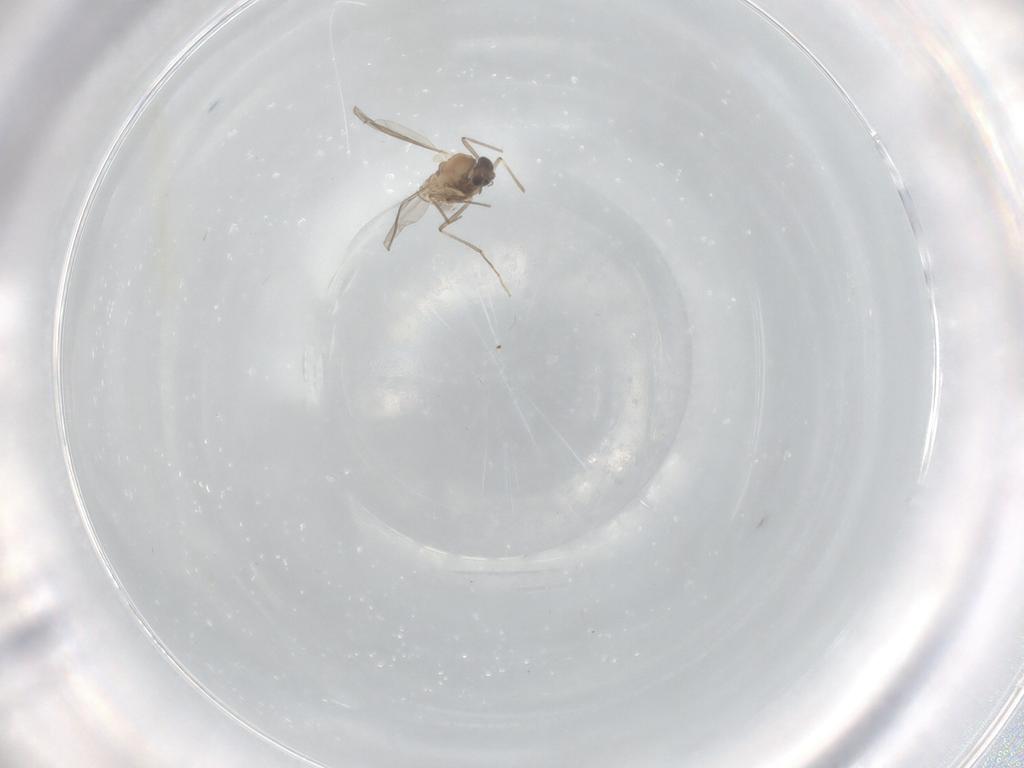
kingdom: Animalia
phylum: Arthropoda
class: Insecta
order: Diptera
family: Chironomidae
